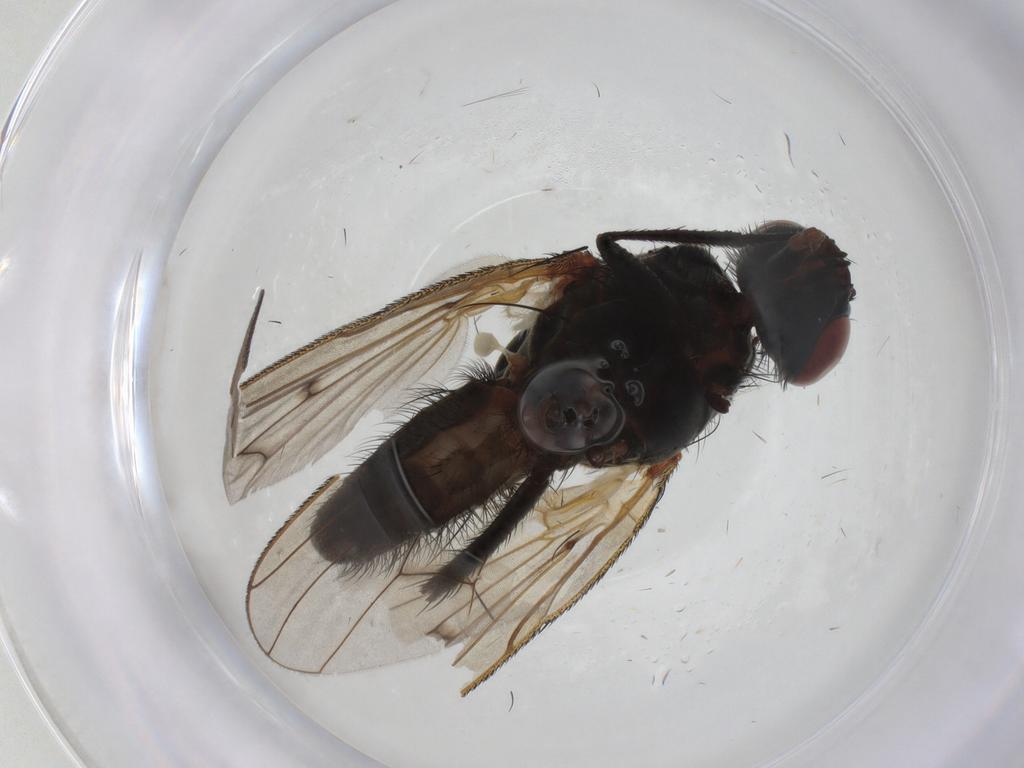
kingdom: Animalia
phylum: Arthropoda
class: Insecta
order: Diptera
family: Anthomyiidae
